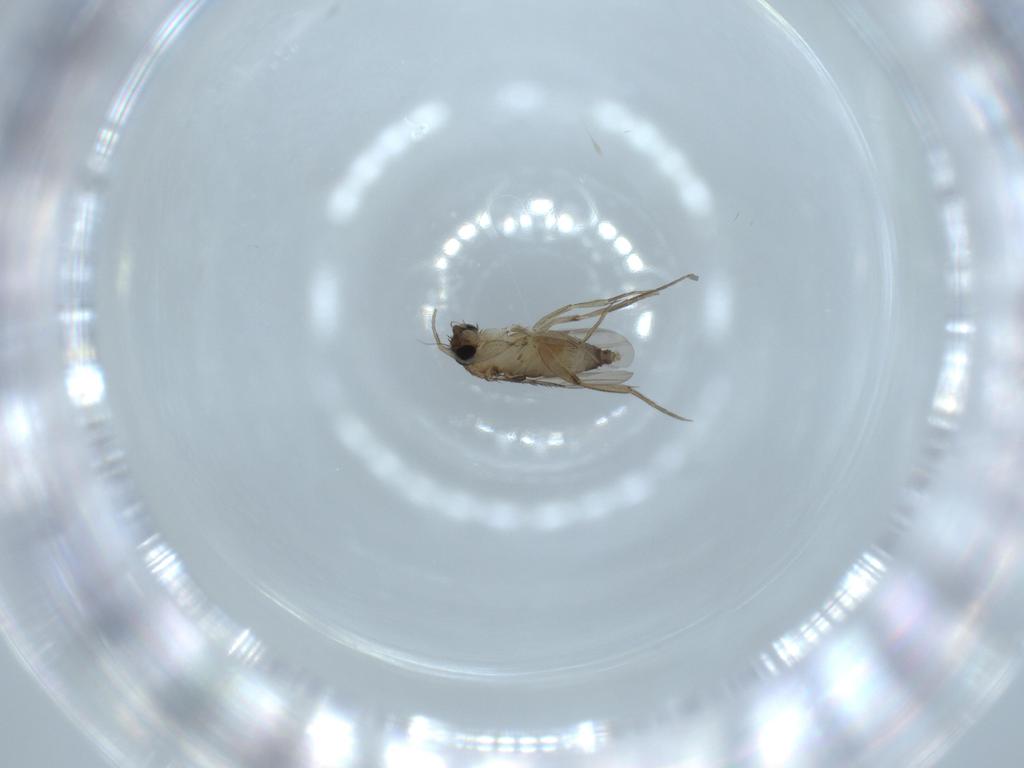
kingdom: Animalia
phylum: Arthropoda
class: Insecta
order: Diptera
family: Phoridae
